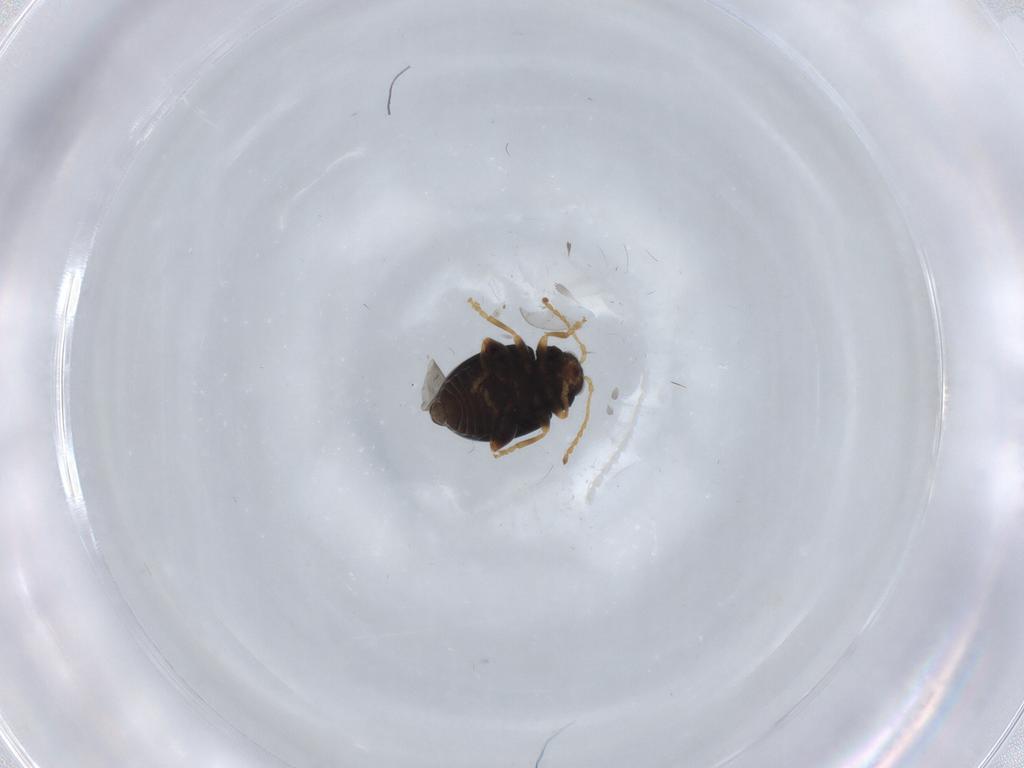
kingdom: Animalia
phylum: Arthropoda
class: Insecta
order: Coleoptera
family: Chrysomelidae
